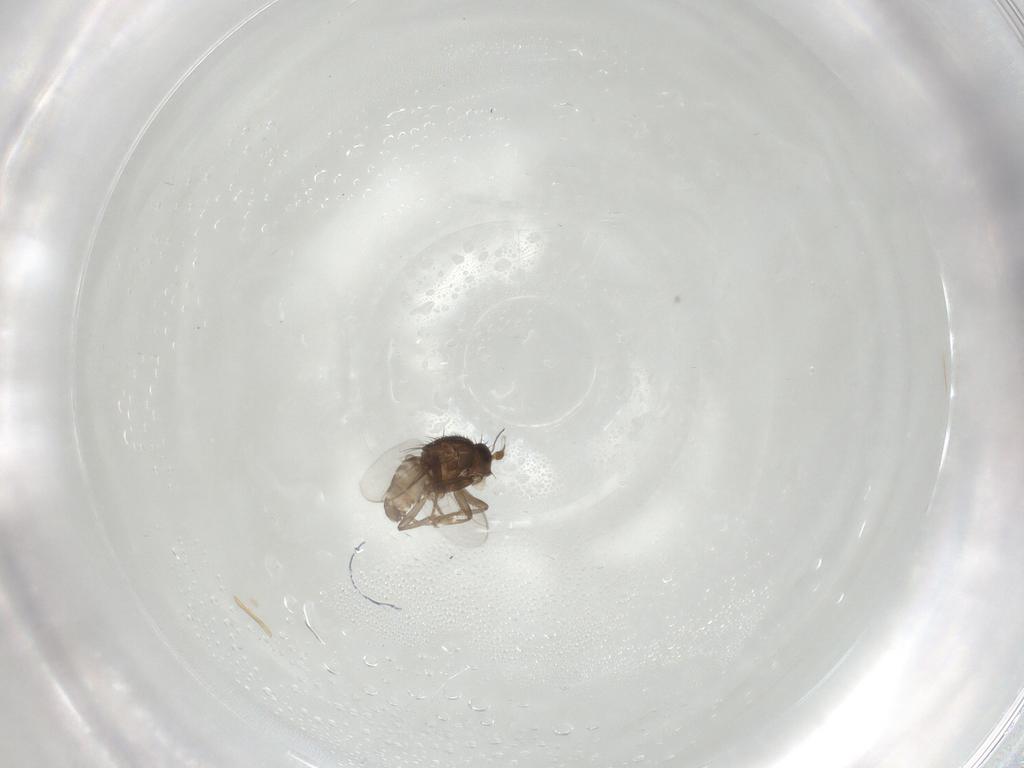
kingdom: Animalia
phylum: Arthropoda
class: Insecta
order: Diptera
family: Sphaeroceridae
